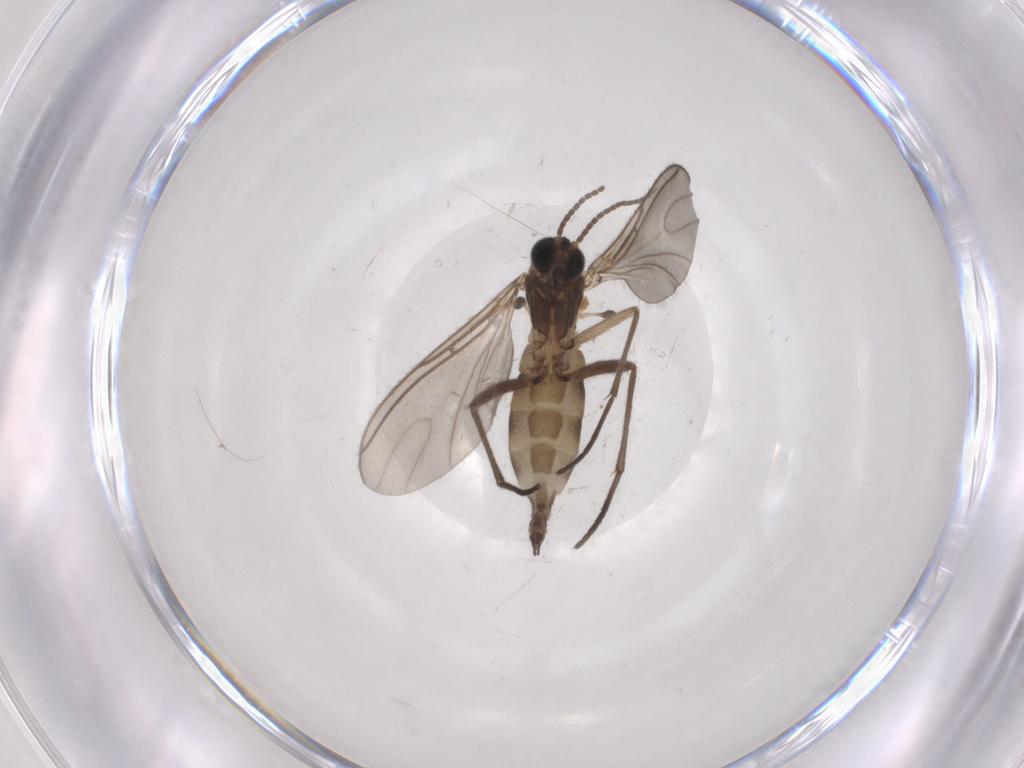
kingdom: Animalia
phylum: Arthropoda
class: Insecta
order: Diptera
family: Sciaridae
